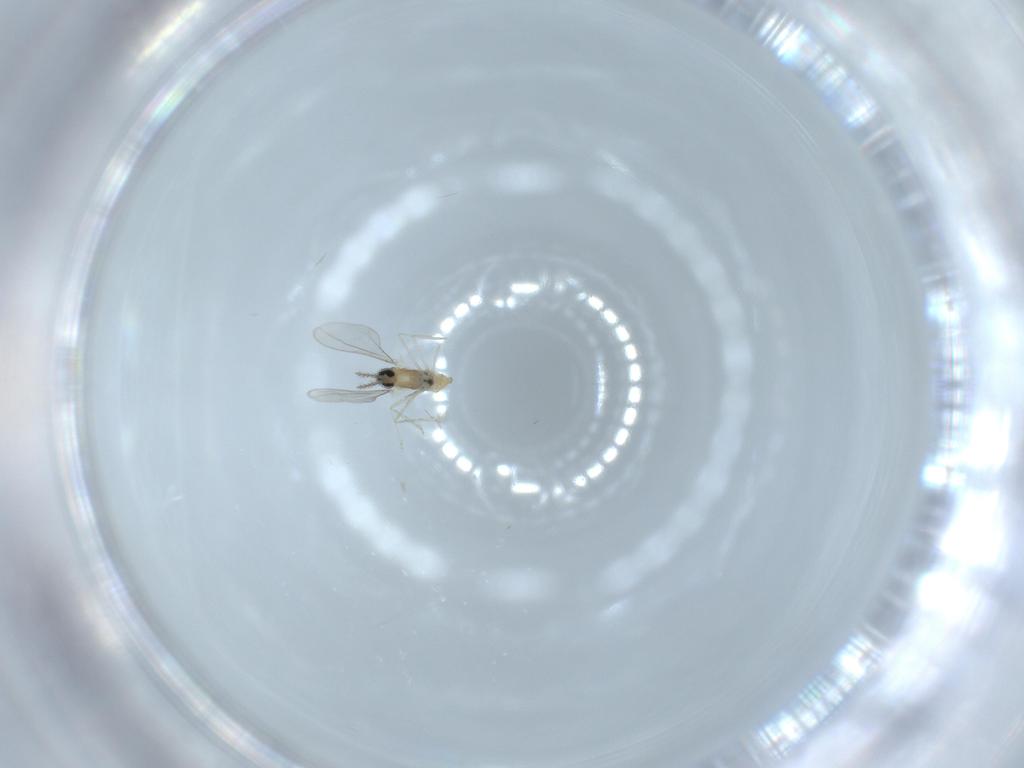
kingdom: Animalia
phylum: Arthropoda
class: Insecta
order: Diptera
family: Cecidomyiidae
